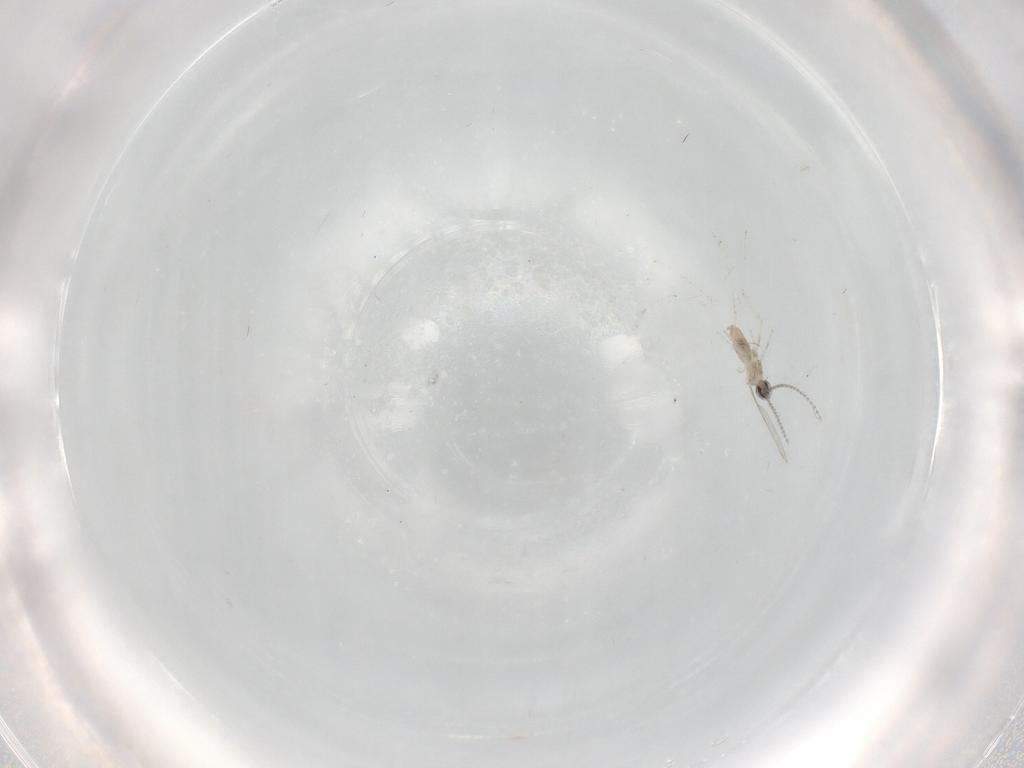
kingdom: Animalia
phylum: Arthropoda
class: Insecta
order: Diptera
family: Cecidomyiidae
